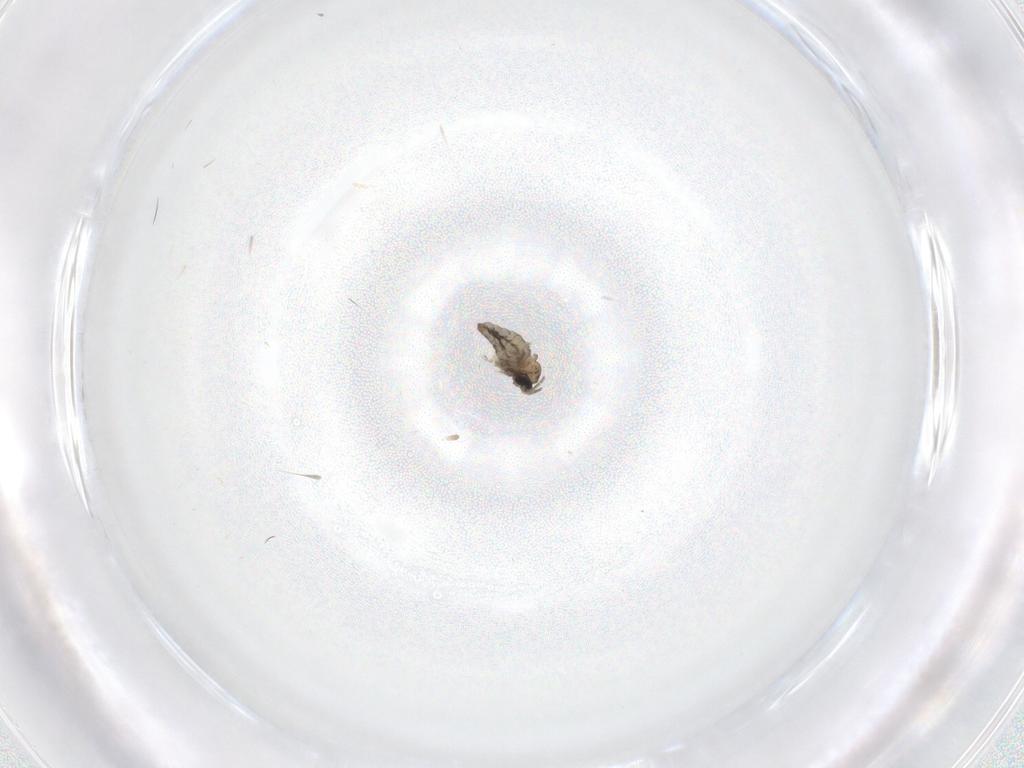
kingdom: Animalia
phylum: Arthropoda
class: Insecta
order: Diptera
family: Cecidomyiidae
